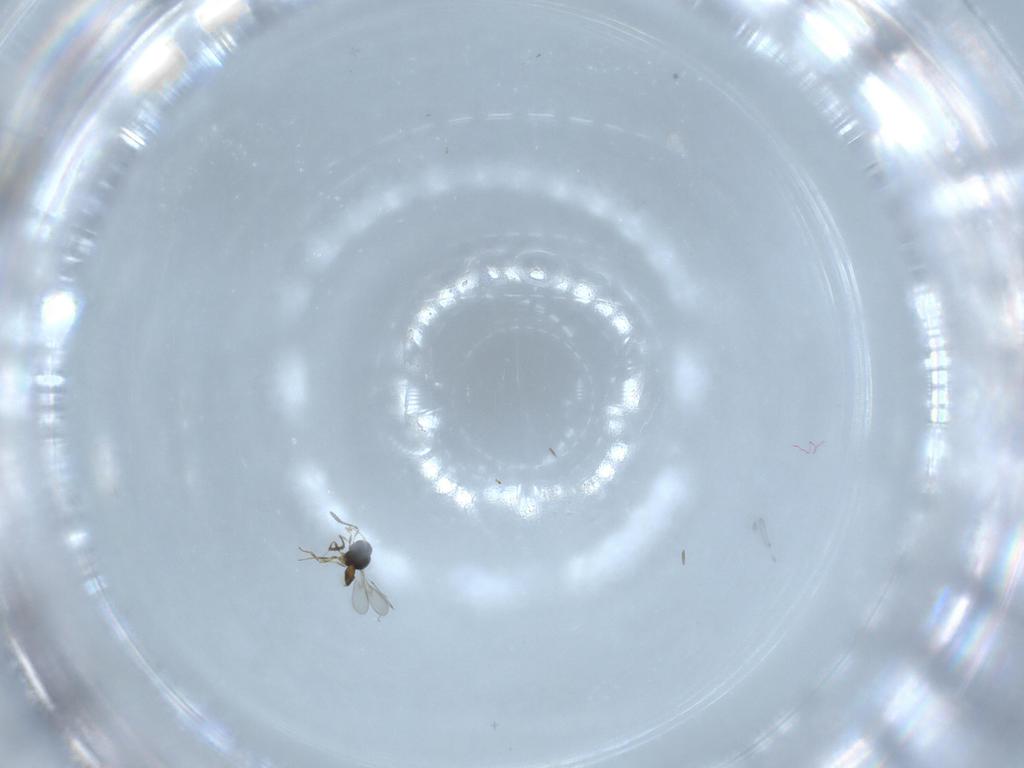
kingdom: Animalia
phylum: Arthropoda
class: Insecta
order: Hymenoptera
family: Scelionidae
